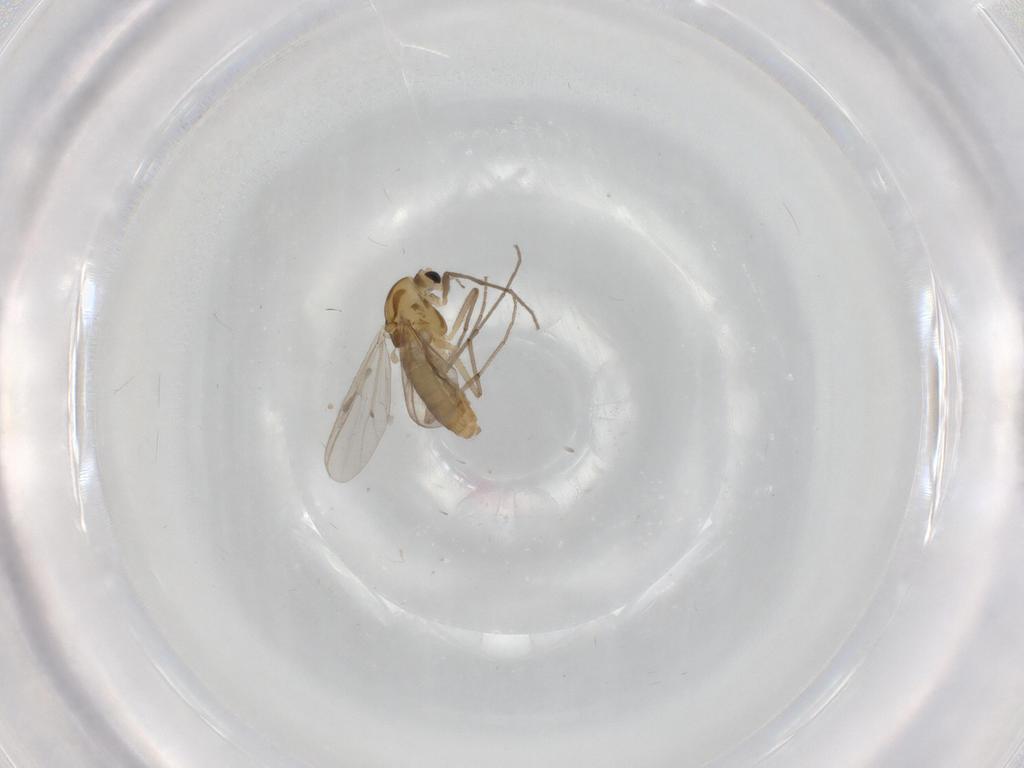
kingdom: Animalia
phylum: Arthropoda
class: Insecta
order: Diptera
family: Chironomidae
